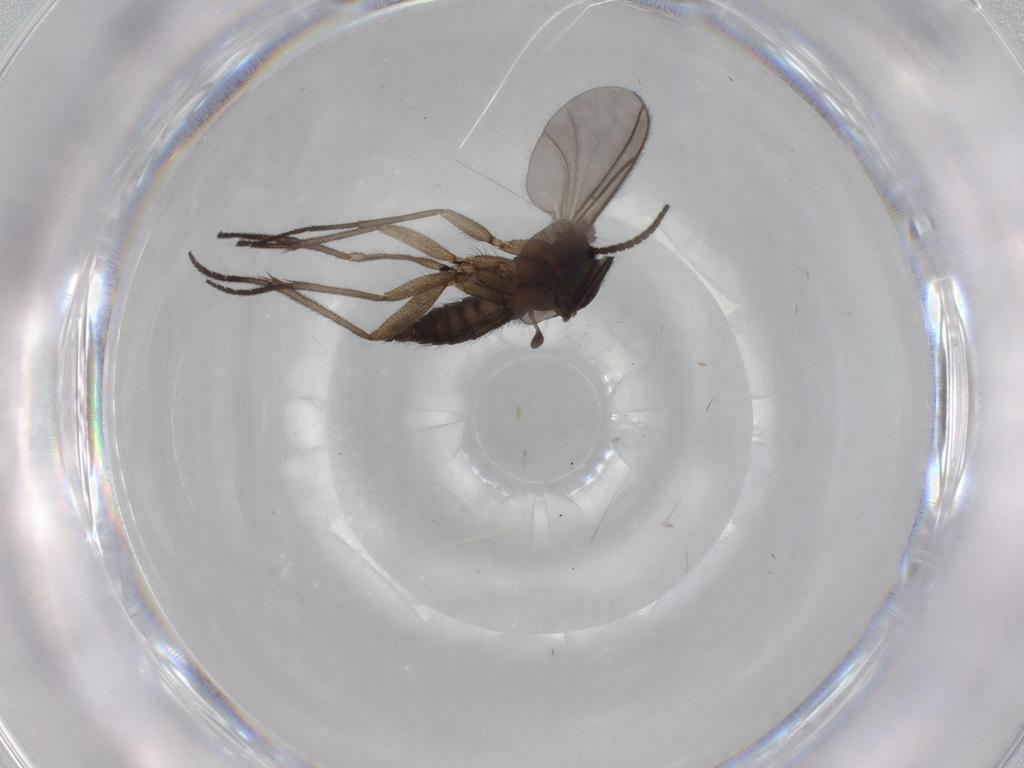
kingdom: Animalia
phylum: Arthropoda
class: Insecta
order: Diptera
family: Sciaridae
